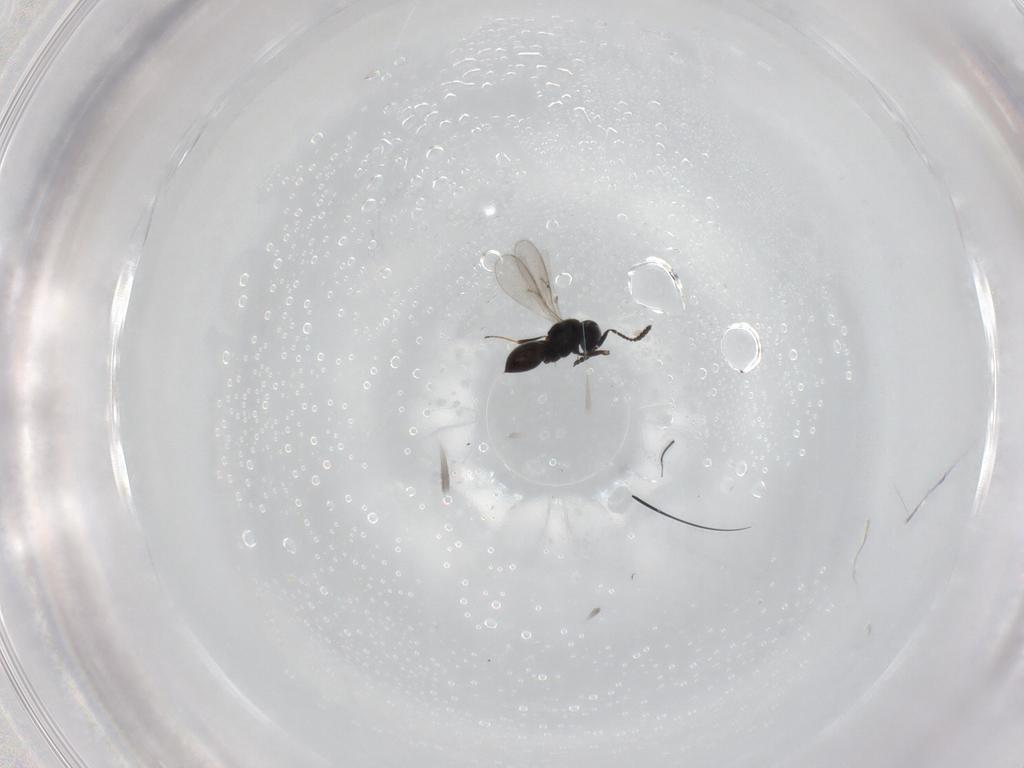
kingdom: Animalia
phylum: Arthropoda
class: Insecta
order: Hymenoptera
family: Scelionidae
